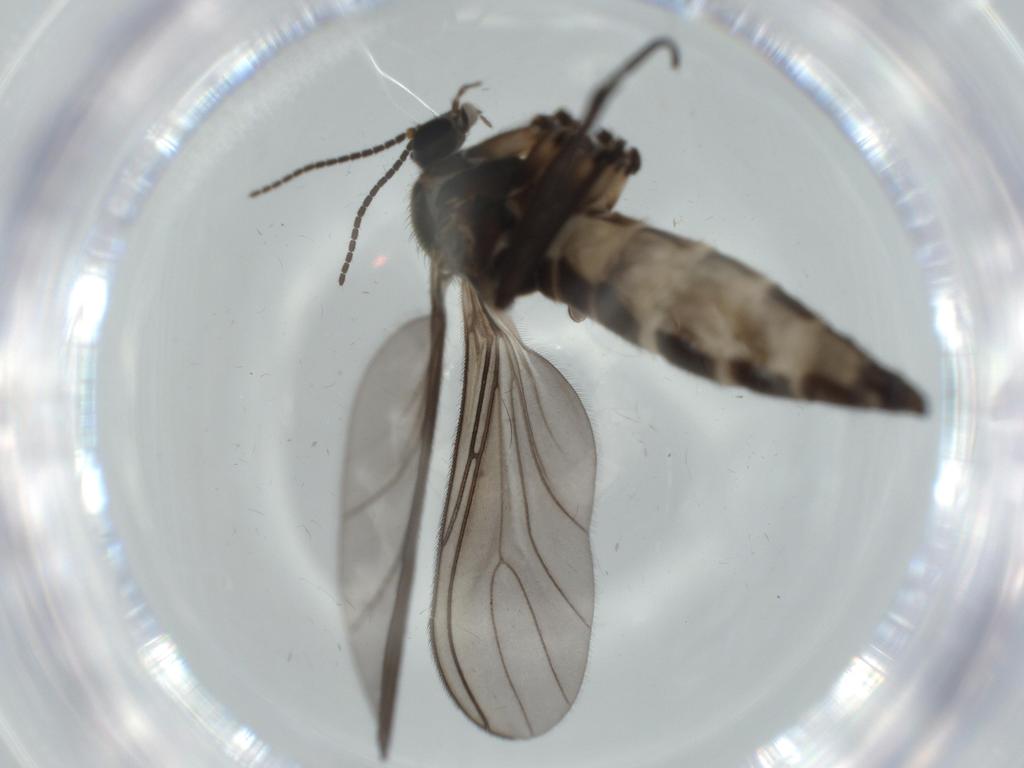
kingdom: Animalia
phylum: Arthropoda
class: Insecta
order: Diptera
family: Sciaridae
